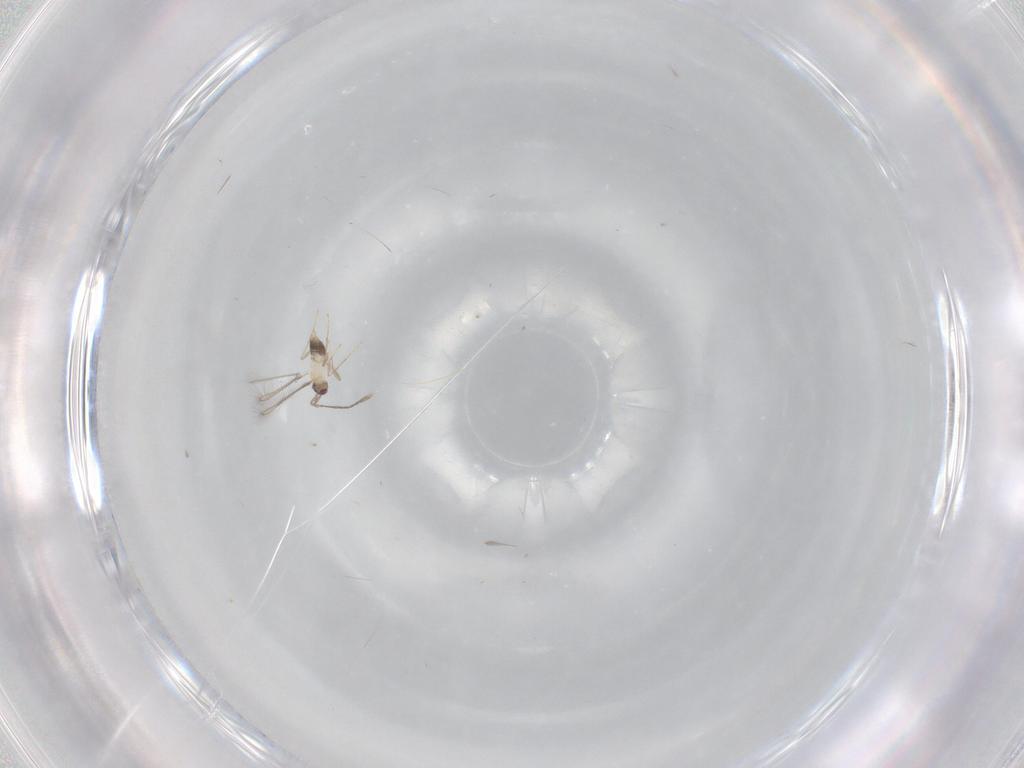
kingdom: Animalia
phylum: Arthropoda
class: Insecta
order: Hymenoptera
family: Mymaridae
